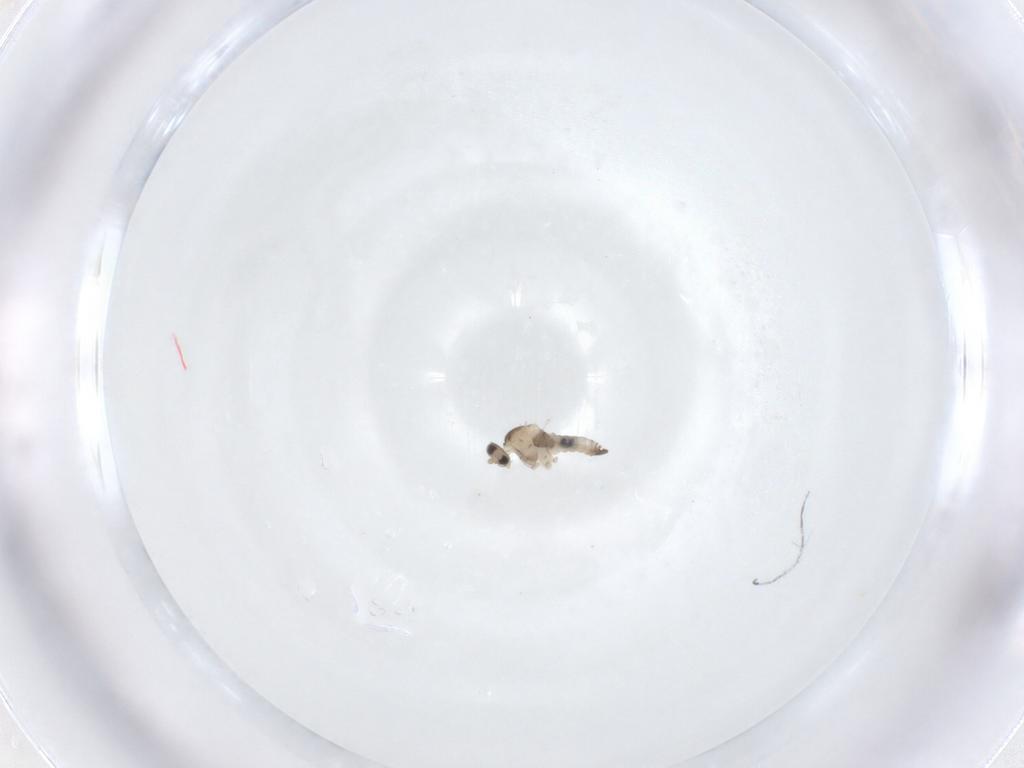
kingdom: Animalia
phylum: Arthropoda
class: Insecta
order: Diptera
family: Cecidomyiidae
